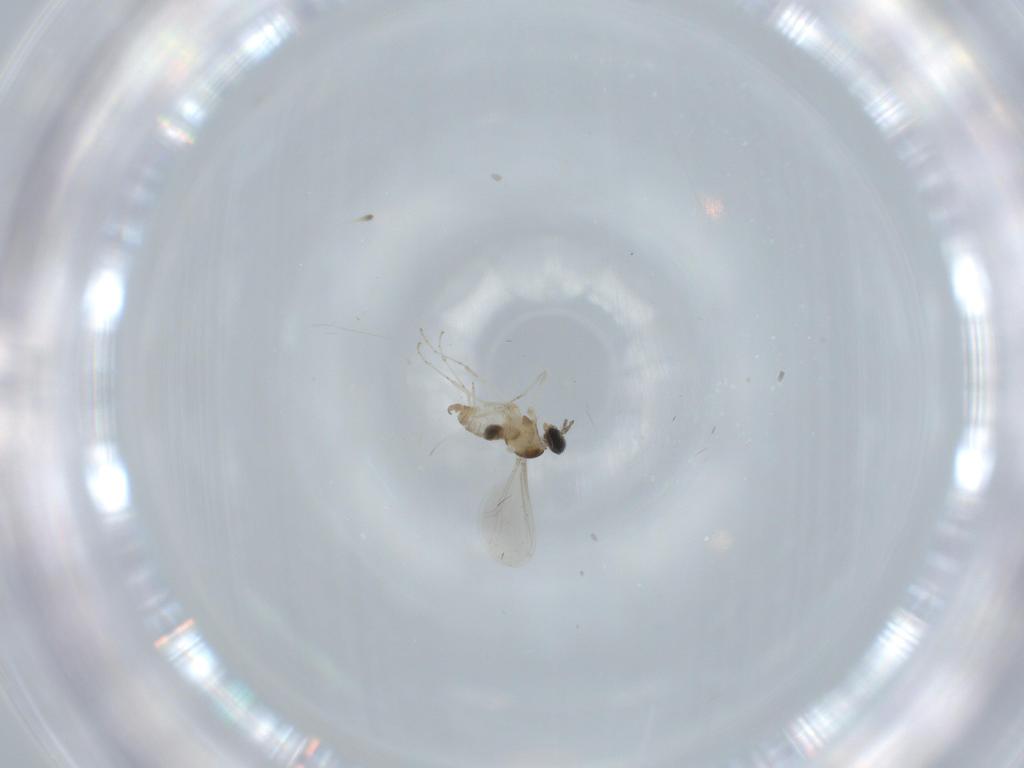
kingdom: Animalia
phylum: Arthropoda
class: Insecta
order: Diptera
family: Cecidomyiidae
